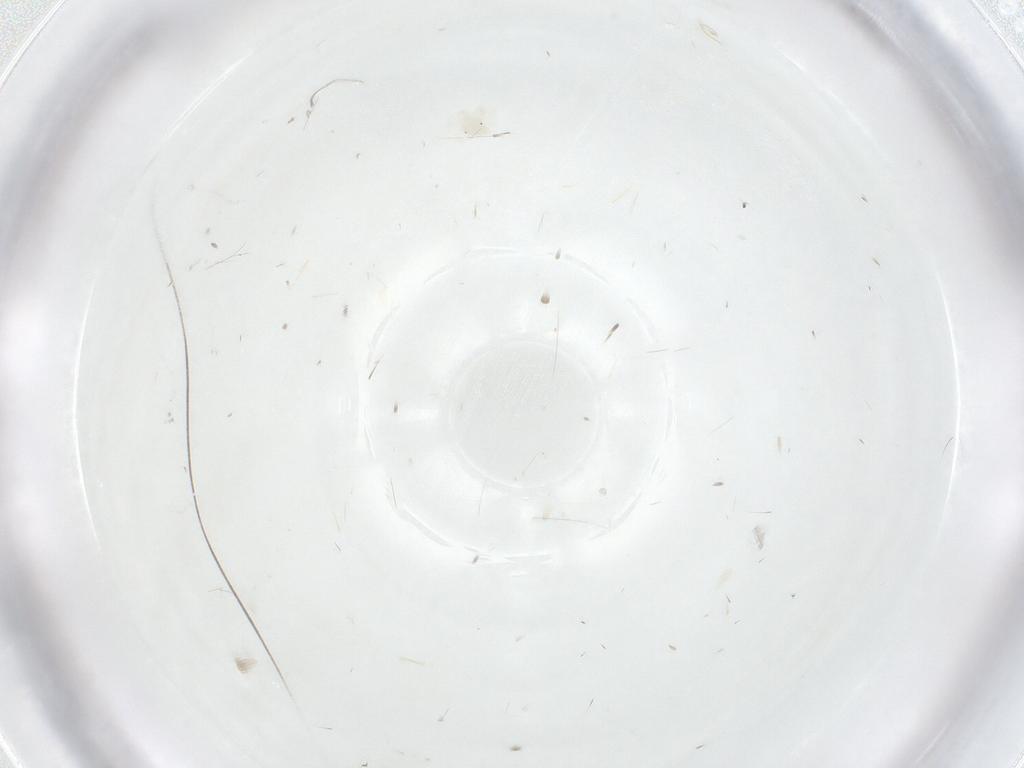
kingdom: Animalia
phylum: Arthropoda
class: Arachnida
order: Trombidiformes
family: Anystidae
